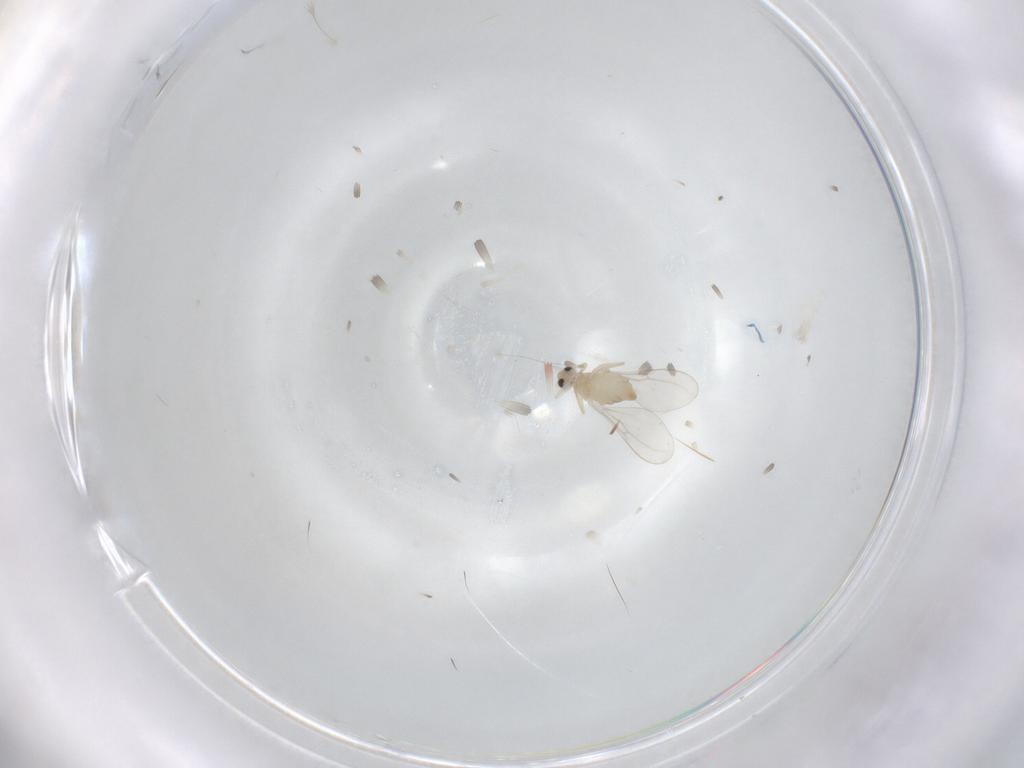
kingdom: Animalia
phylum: Arthropoda
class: Insecta
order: Diptera
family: Cecidomyiidae
